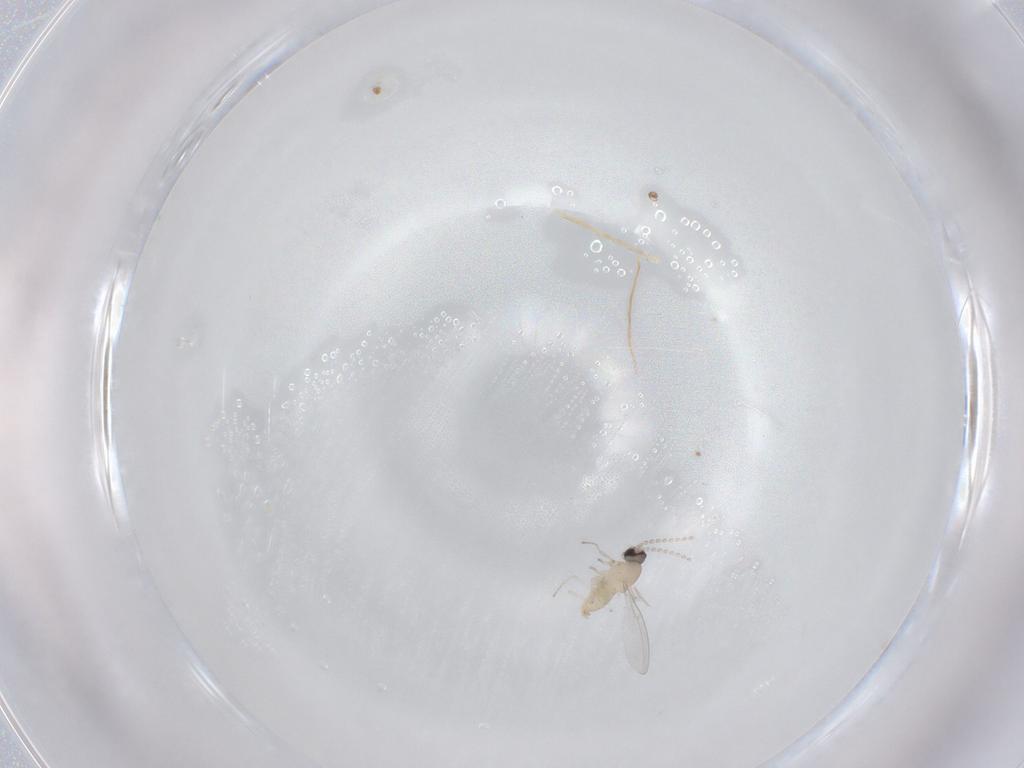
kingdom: Animalia
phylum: Arthropoda
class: Insecta
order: Diptera
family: Cecidomyiidae
